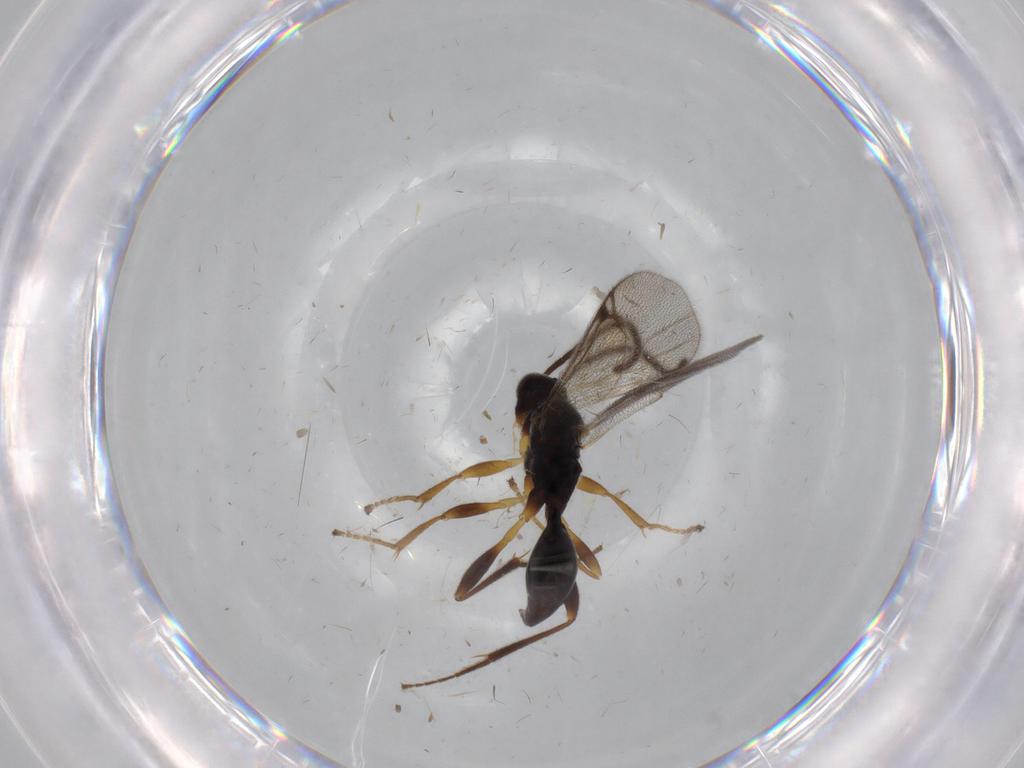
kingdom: Animalia
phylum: Arthropoda
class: Insecta
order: Hymenoptera
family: Proctotrupidae
